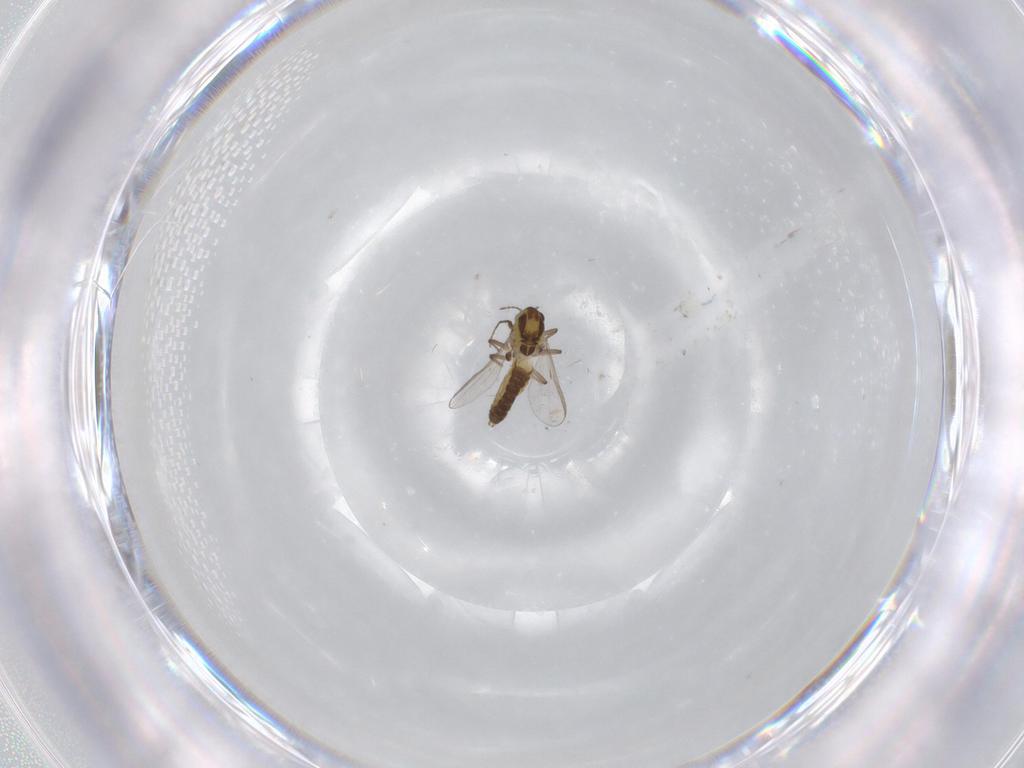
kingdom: Animalia
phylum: Arthropoda
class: Insecta
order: Diptera
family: Chironomidae
